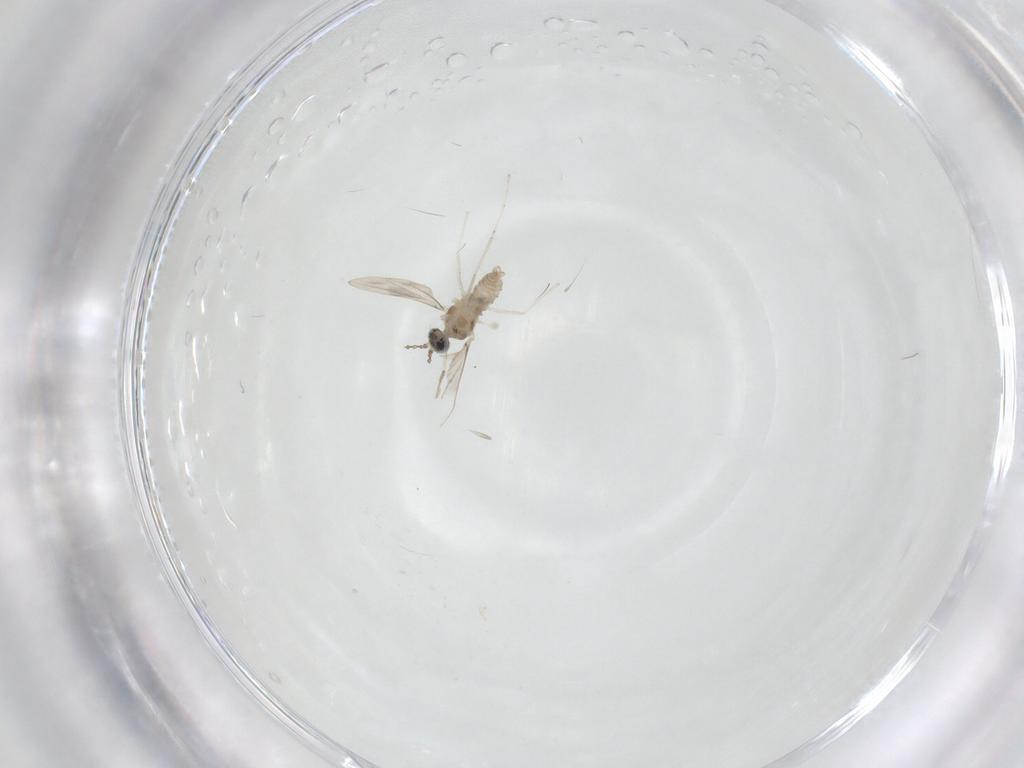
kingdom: Animalia
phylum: Arthropoda
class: Insecta
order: Diptera
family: Cecidomyiidae
